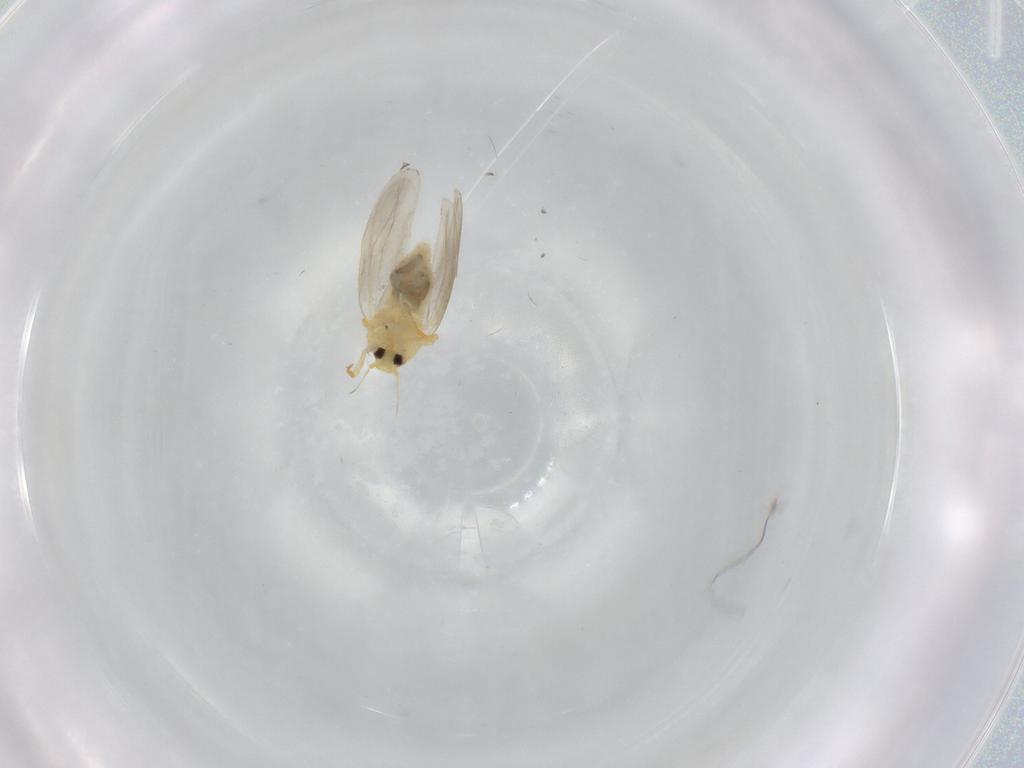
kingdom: Animalia
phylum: Arthropoda
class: Insecta
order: Hemiptera
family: Aleyrodidae
